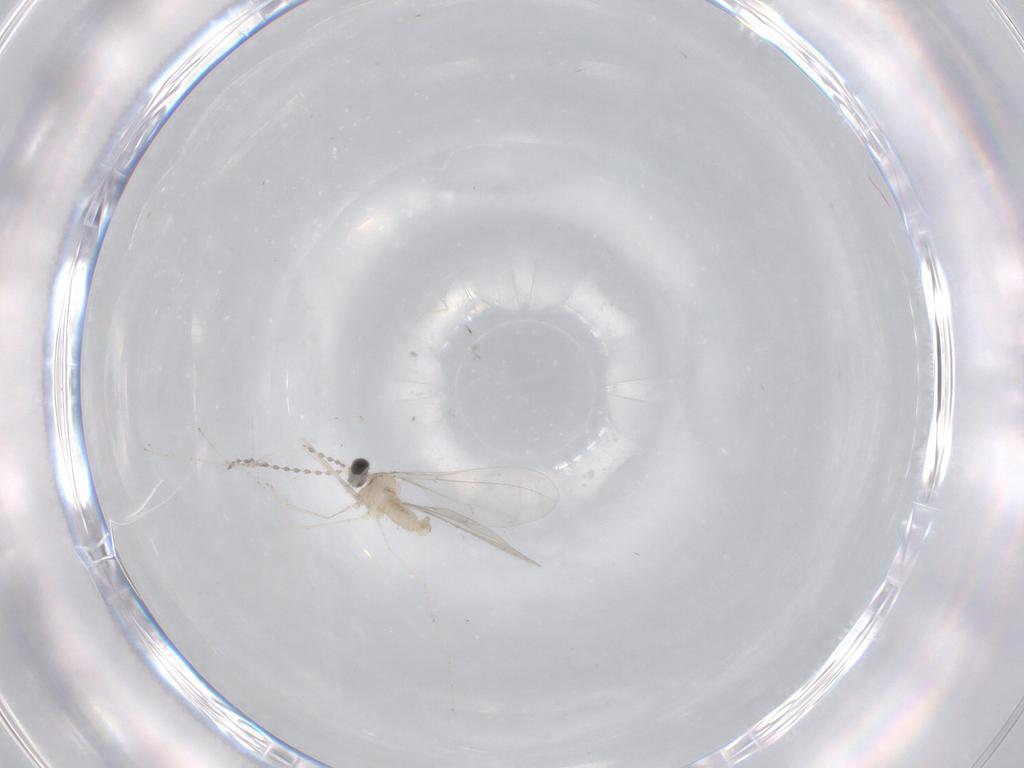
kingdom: Animalia
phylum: Arthropoda
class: Insecta
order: Diptera
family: Cecidomyiidae
